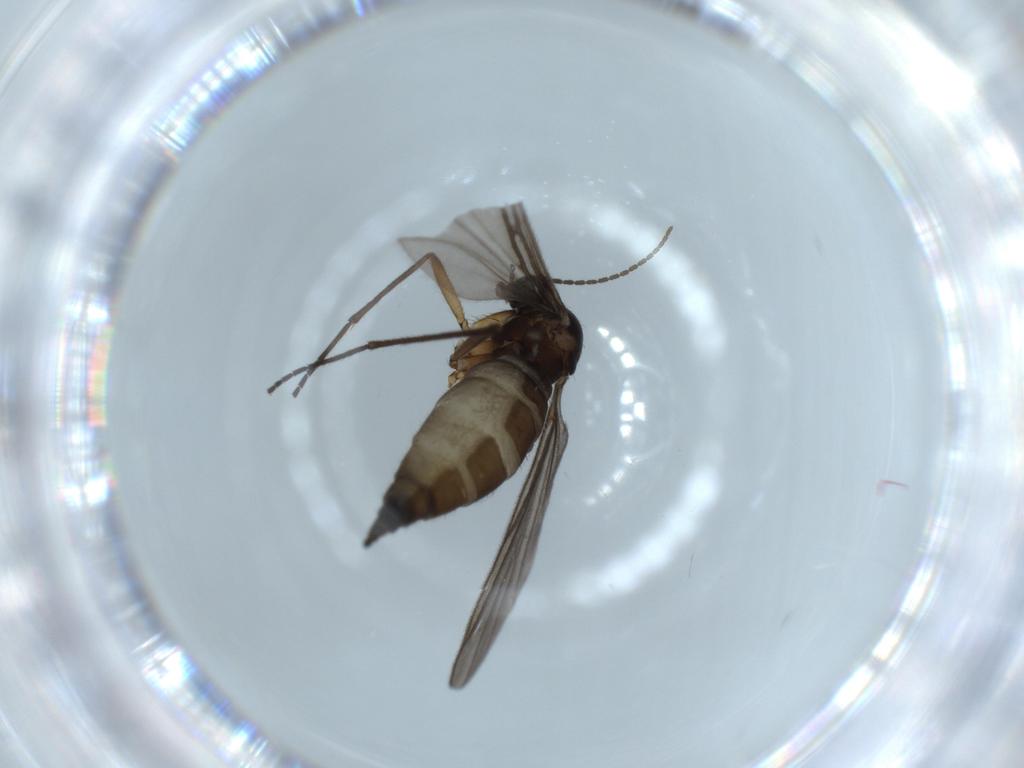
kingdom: Animalia
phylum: Arthropoda
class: Insecta
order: Diptera
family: Sciaridae
